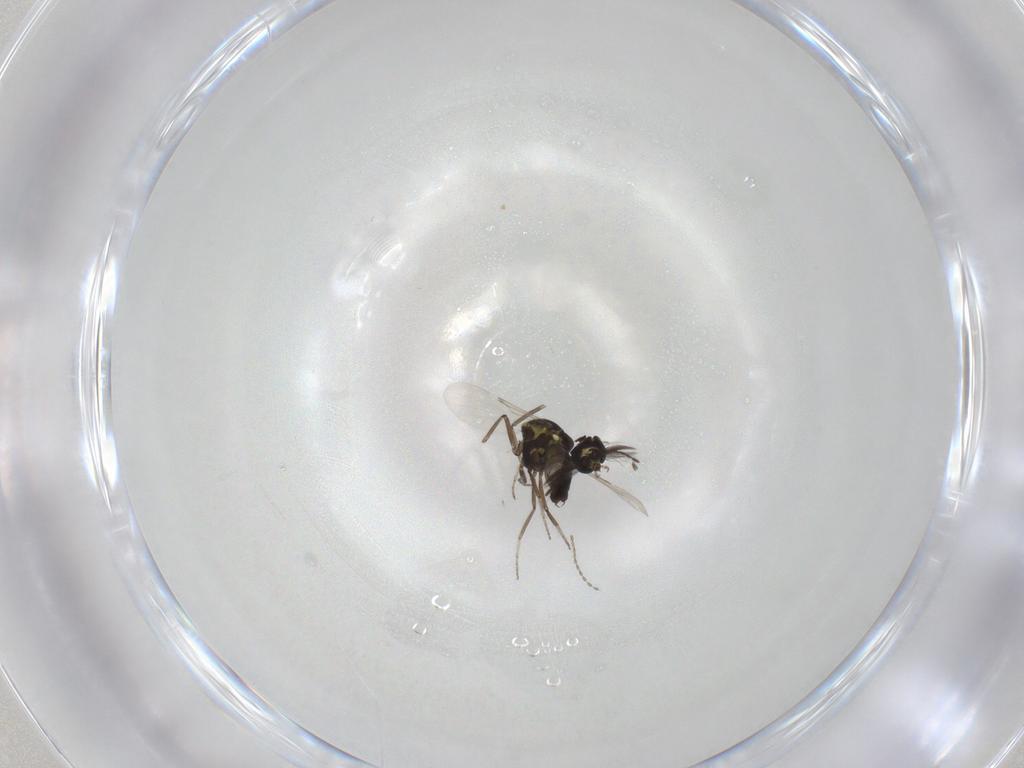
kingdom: Animalia
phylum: Arthropoda
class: Insecta
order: Diptera
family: Ceratopogonidae
